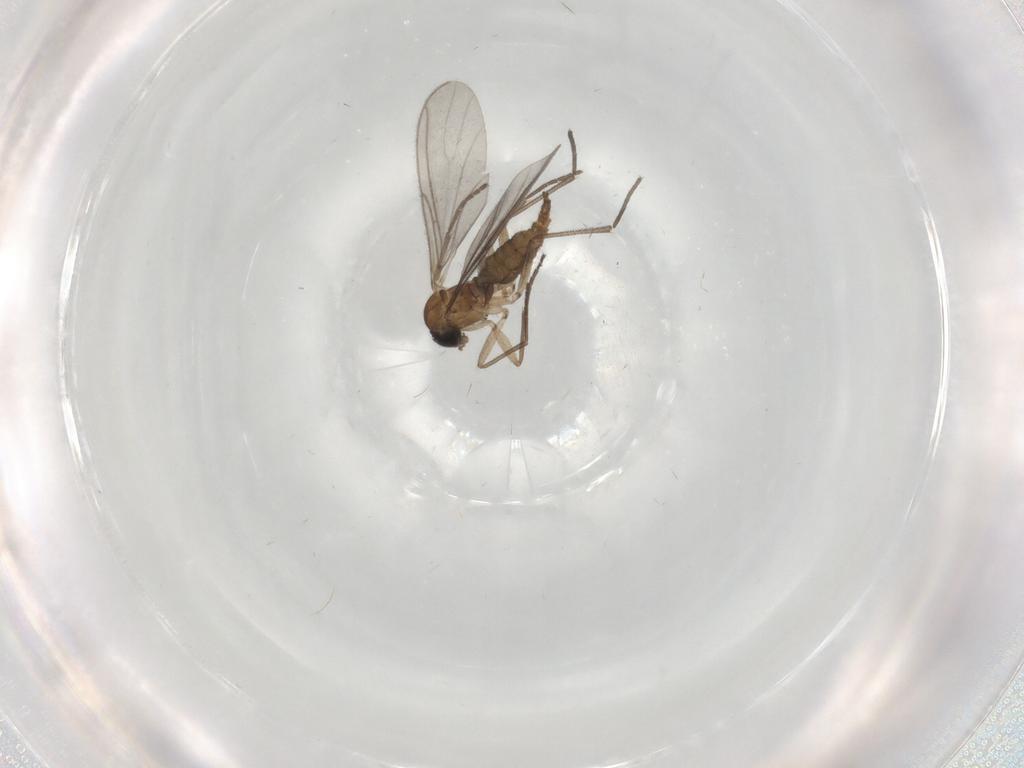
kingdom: Animalia
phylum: Arthropoda
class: Insecta
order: Diptera
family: Sciaridae
